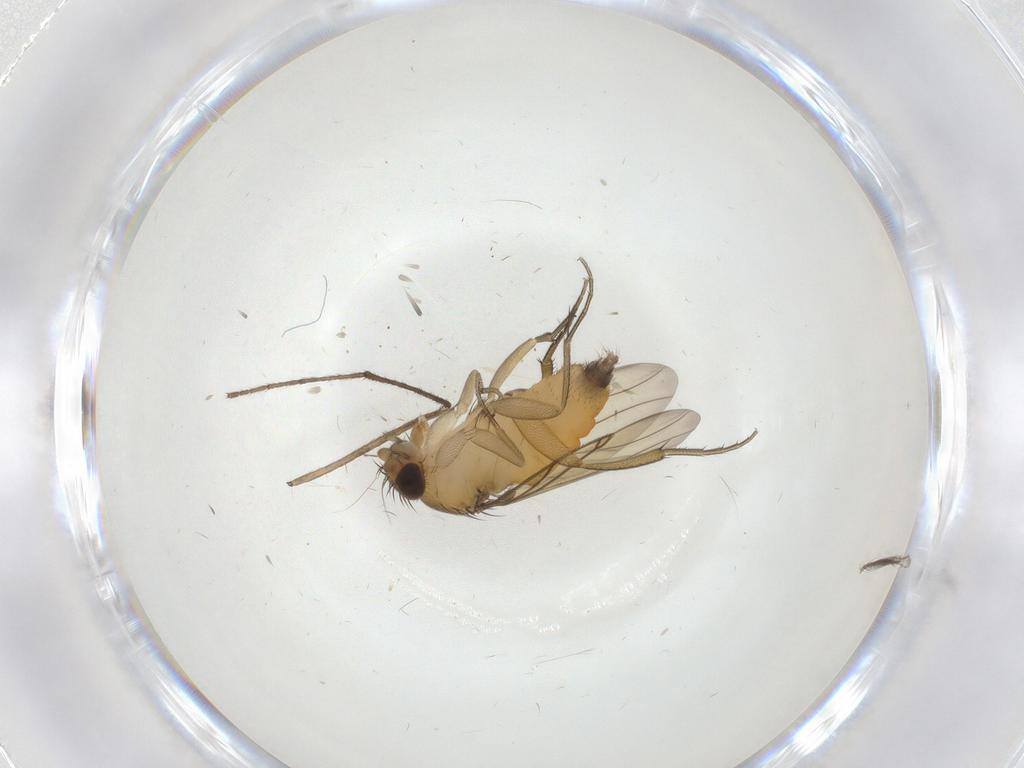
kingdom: Animalia
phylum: Arthropoda
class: Insecta
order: Diptera
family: Limoniidae
